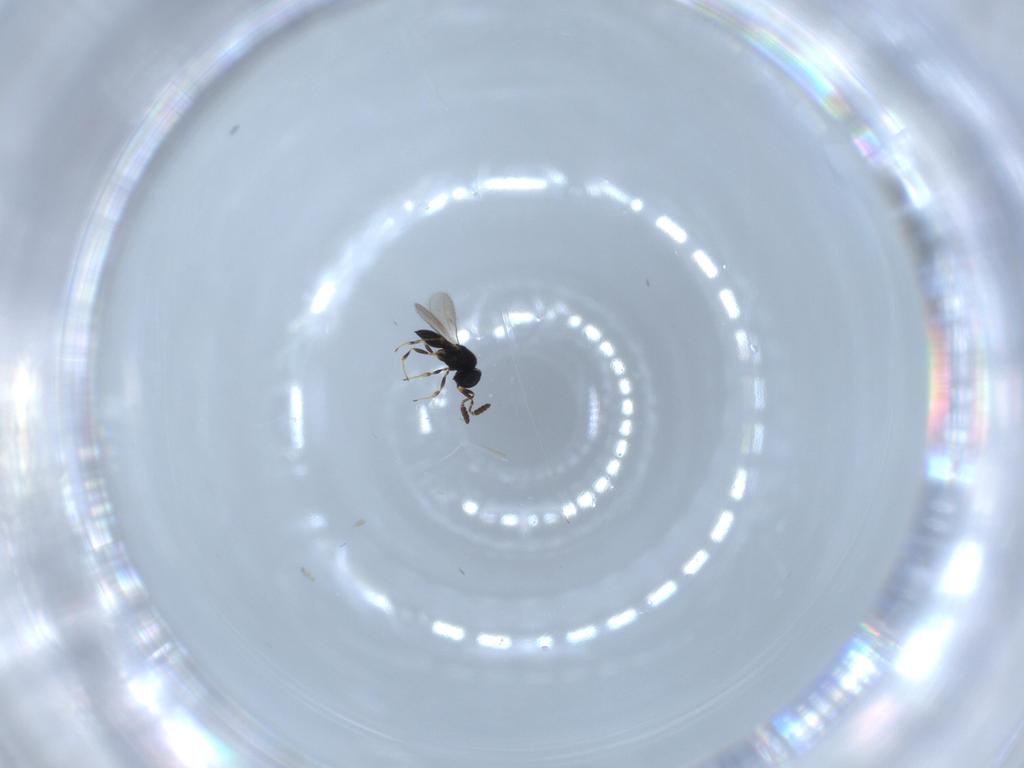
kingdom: Animalia
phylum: Arthropoda
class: Insecta
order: Hymenoptera
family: Scelionidae
